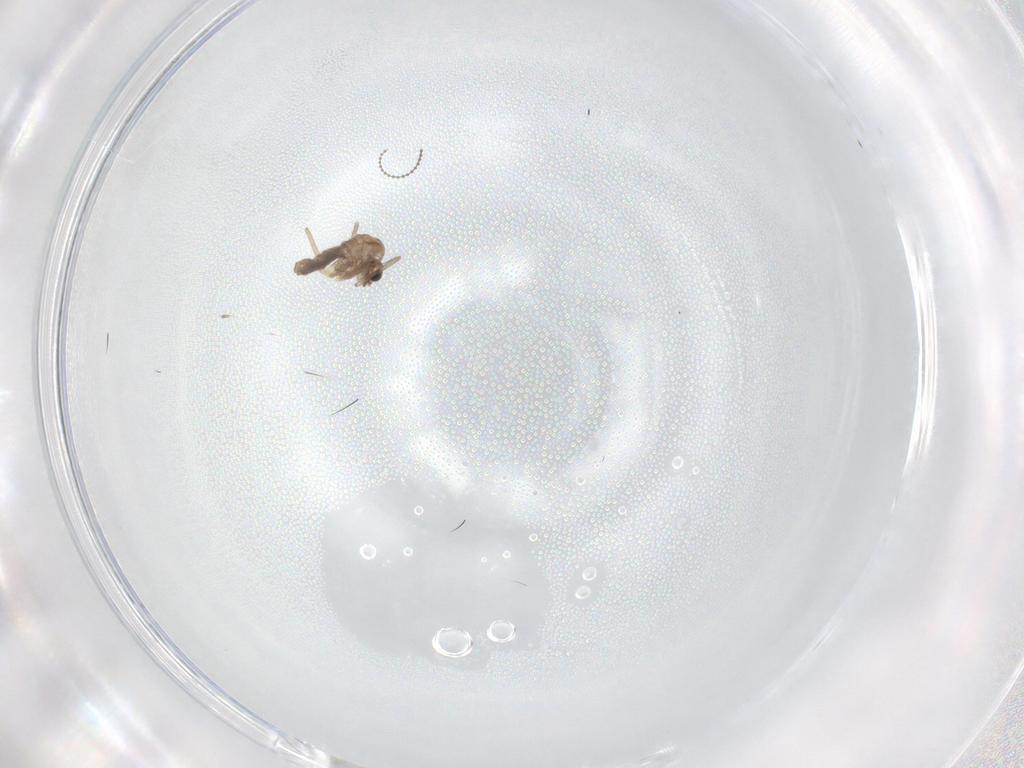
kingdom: Animalia
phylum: Arthropoda
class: Insecta
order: Diptera
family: Chironomidae
